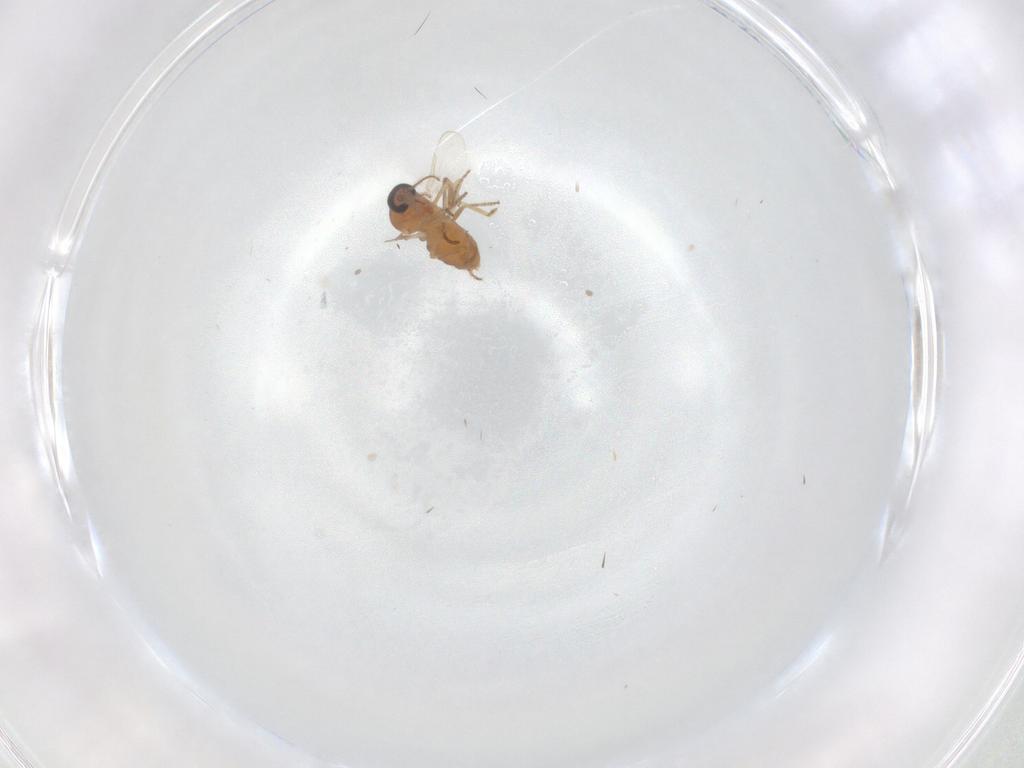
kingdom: Animalia
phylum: Arthropoda
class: Insecta
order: Diptera
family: Ceratopogonidae
